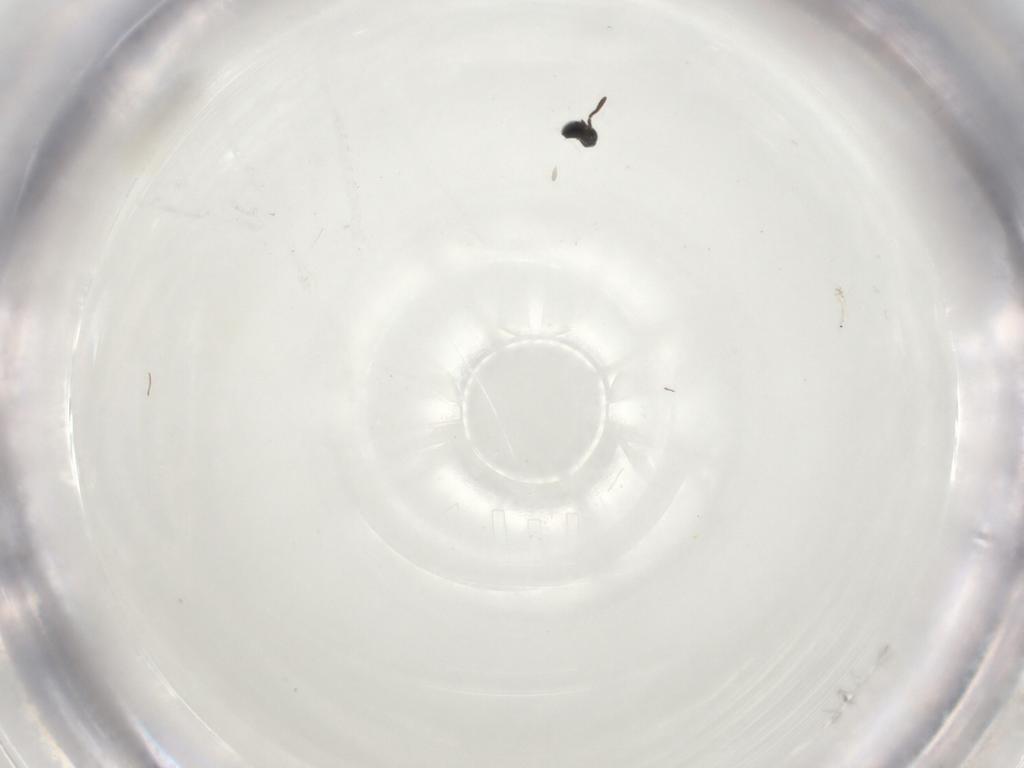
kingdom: Animalia
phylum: Arthropoda
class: Insecta
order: Hymenoptera
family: Scelionidae
